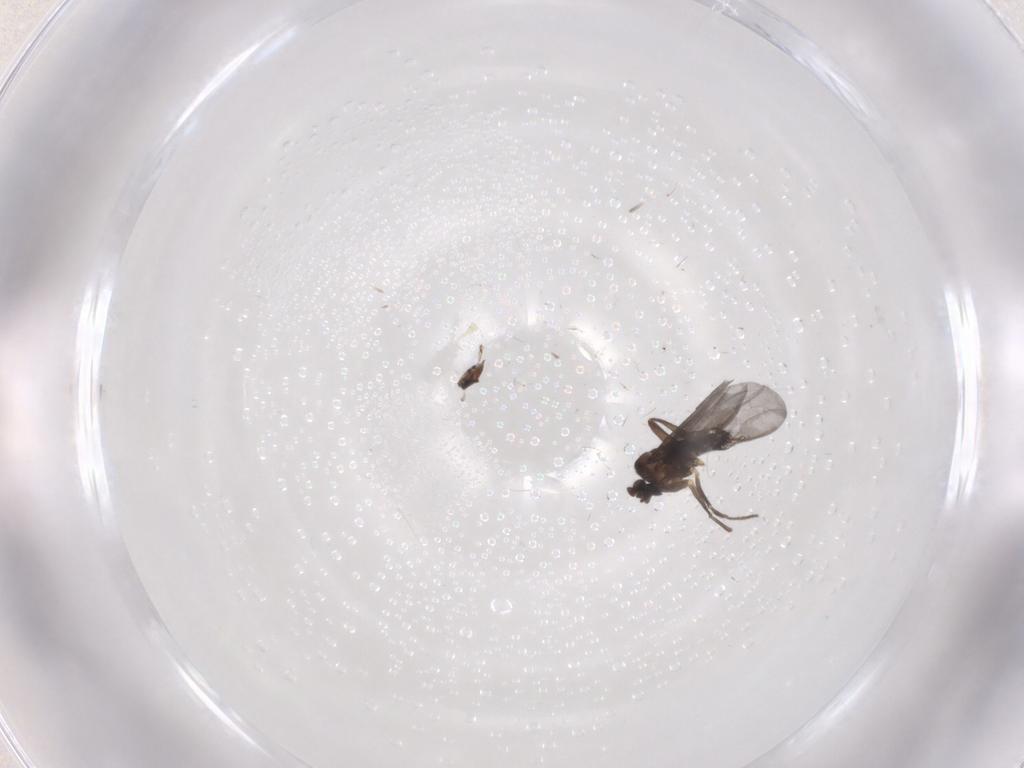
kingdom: Animalia
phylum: Arthropoda
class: Insecta
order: Diptera
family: Phoridae
